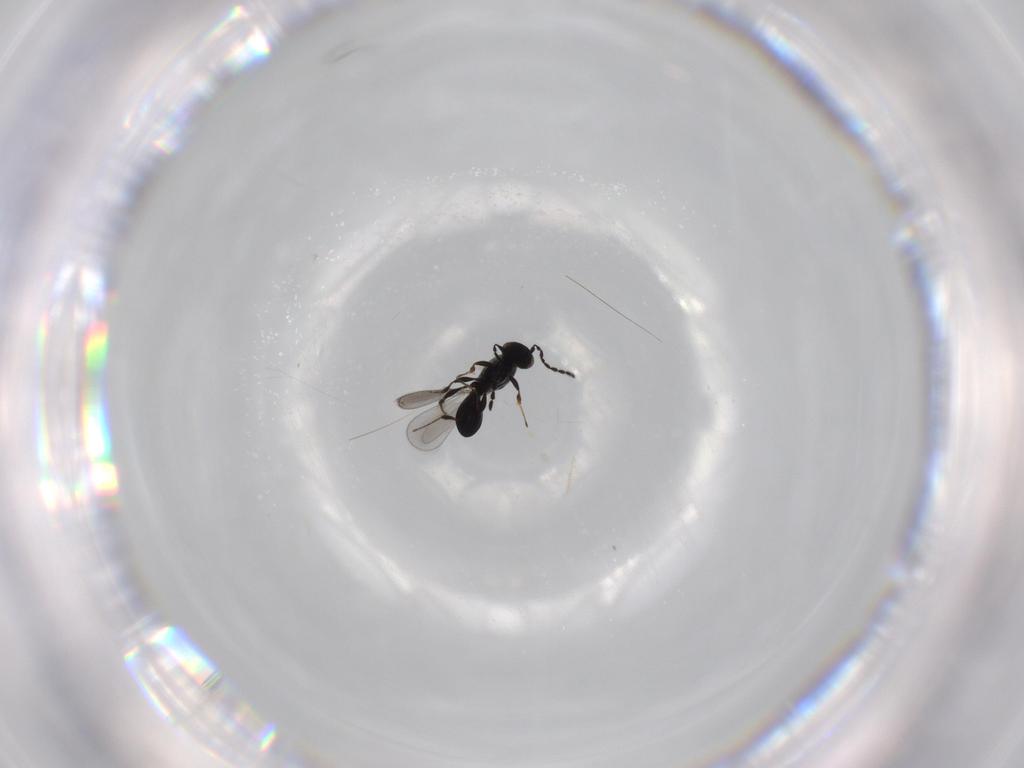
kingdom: Animalia
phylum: Arthropoda
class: Insecta
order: Hymenoptera
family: Platygastridae
